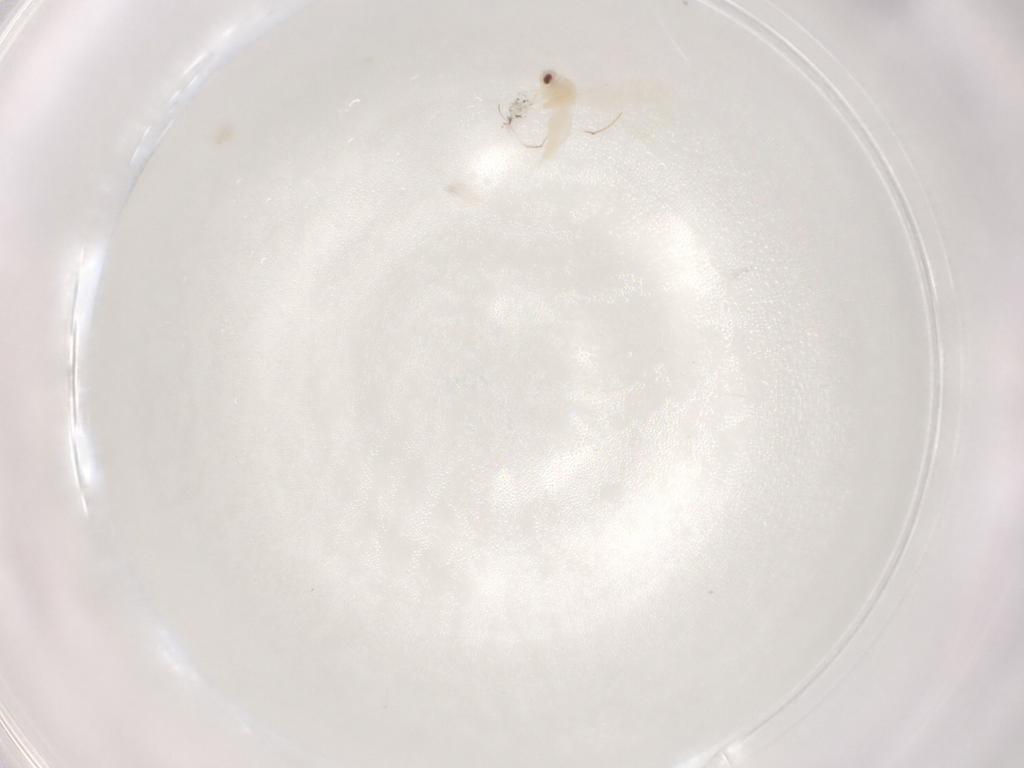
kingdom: Animalia
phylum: Arthropoda
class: Insecta
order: Hemiptera
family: Aleyrodidae
